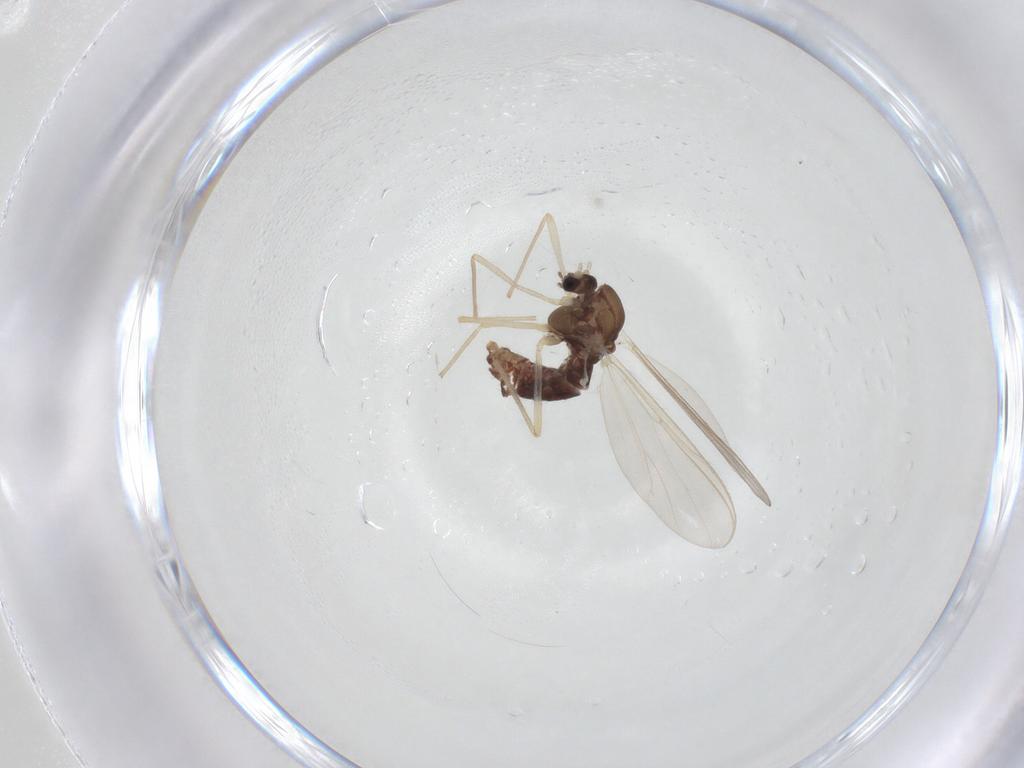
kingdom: Animalia
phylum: Arthropoda
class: Insecta
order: Diptera
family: Chironomidae
